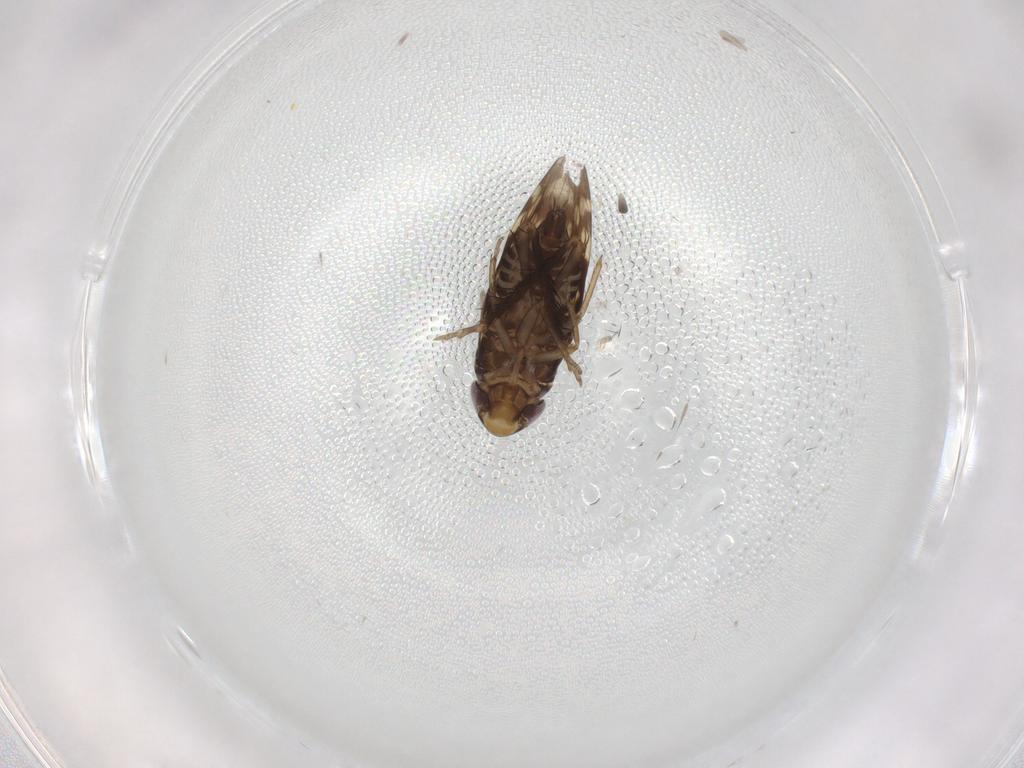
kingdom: Animalia
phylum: Arthropoda
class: Insecta
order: Hemiptera
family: Cicadellidae
